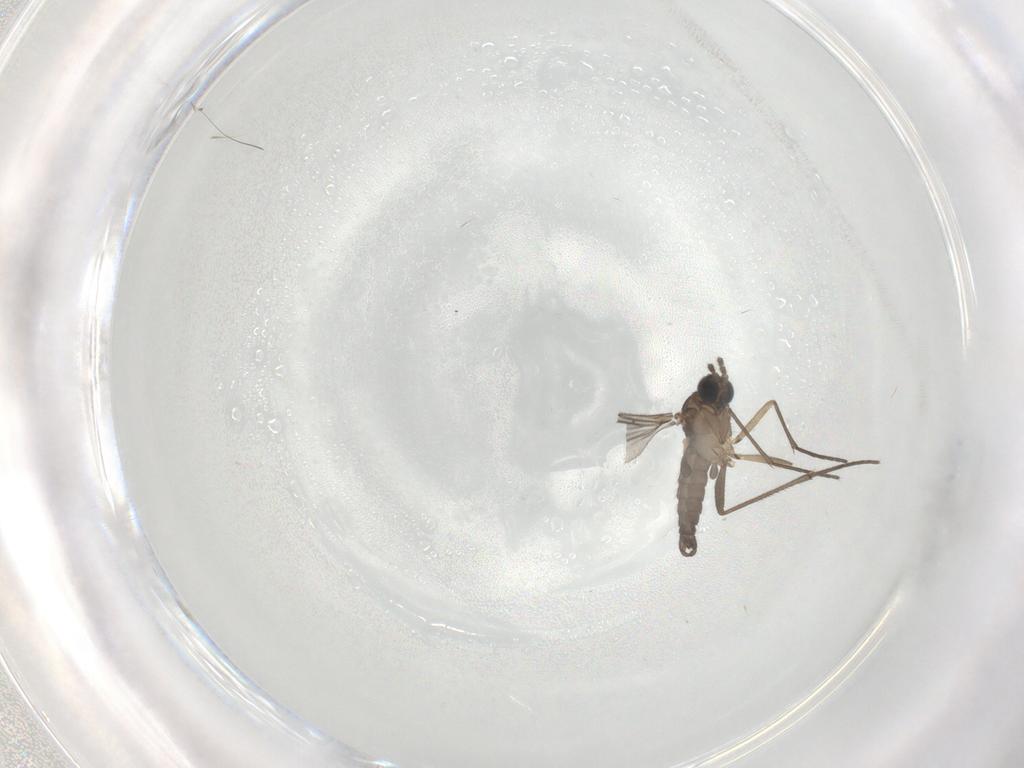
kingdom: Animalia
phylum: Arthropoda
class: Insecta
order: Diptera
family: Sciaridae
